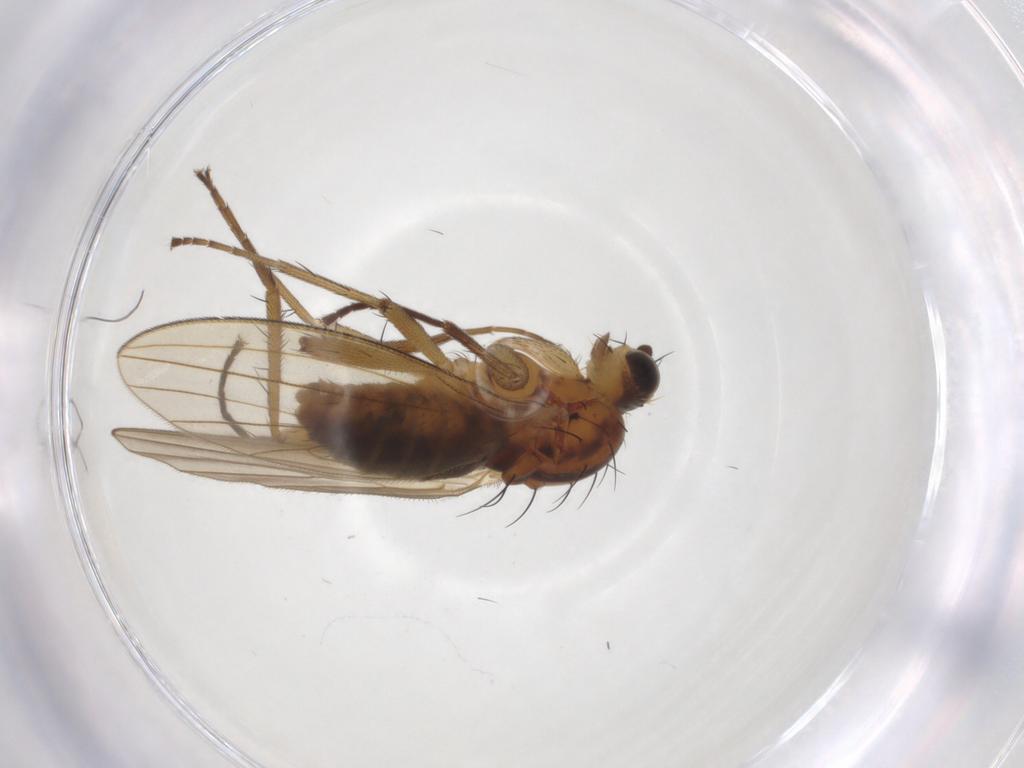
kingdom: Animalia
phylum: Arthropoda
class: Insecta
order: Diptera
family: Lonchopteridae
